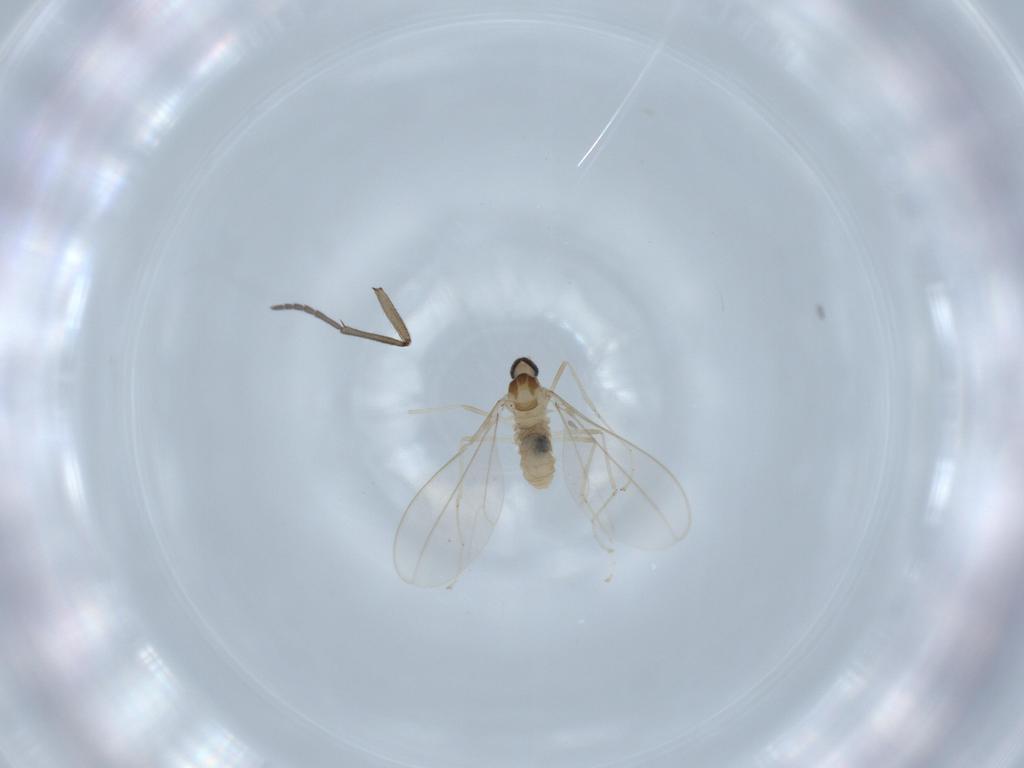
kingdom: Animalia
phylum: Arthropoda
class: Insecta
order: Diptera
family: Cecidomyiidae
